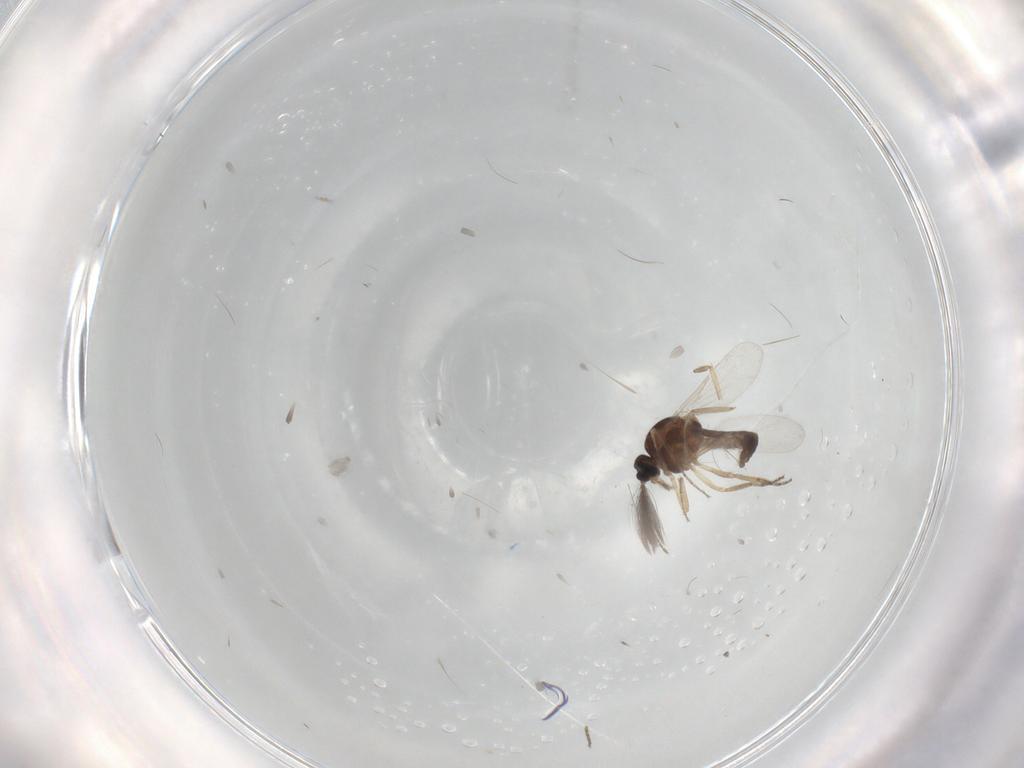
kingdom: Animalia
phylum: Arthropoda
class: Insecta
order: Diptera
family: Ceratopogonidae
